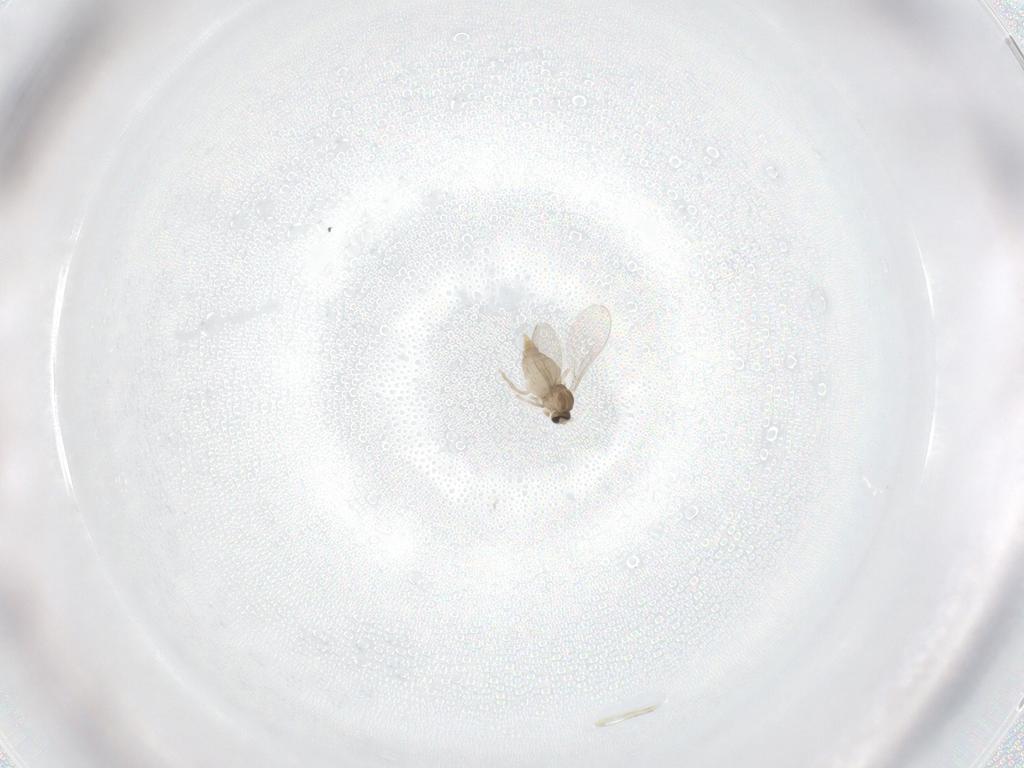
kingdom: Animalia
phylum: Arthropoda
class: Insecta
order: Diptera
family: Cecidomyiidae
